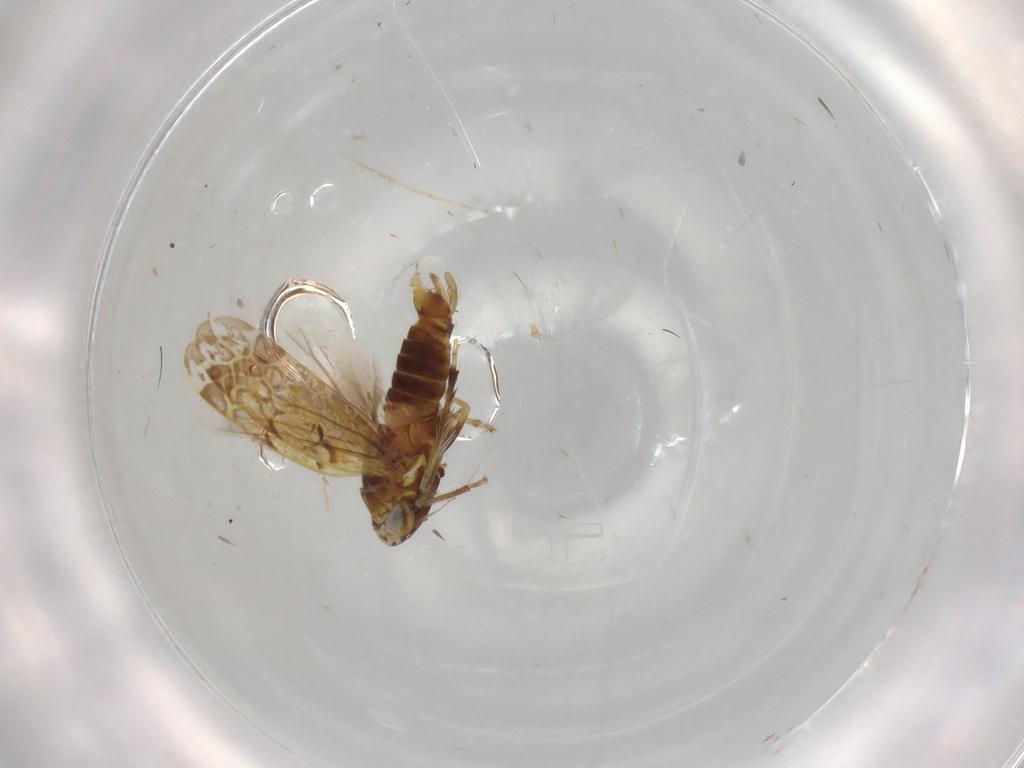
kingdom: Animalia
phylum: Arthropoda
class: Insecta
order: Hemiptera
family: Cicadellidae
